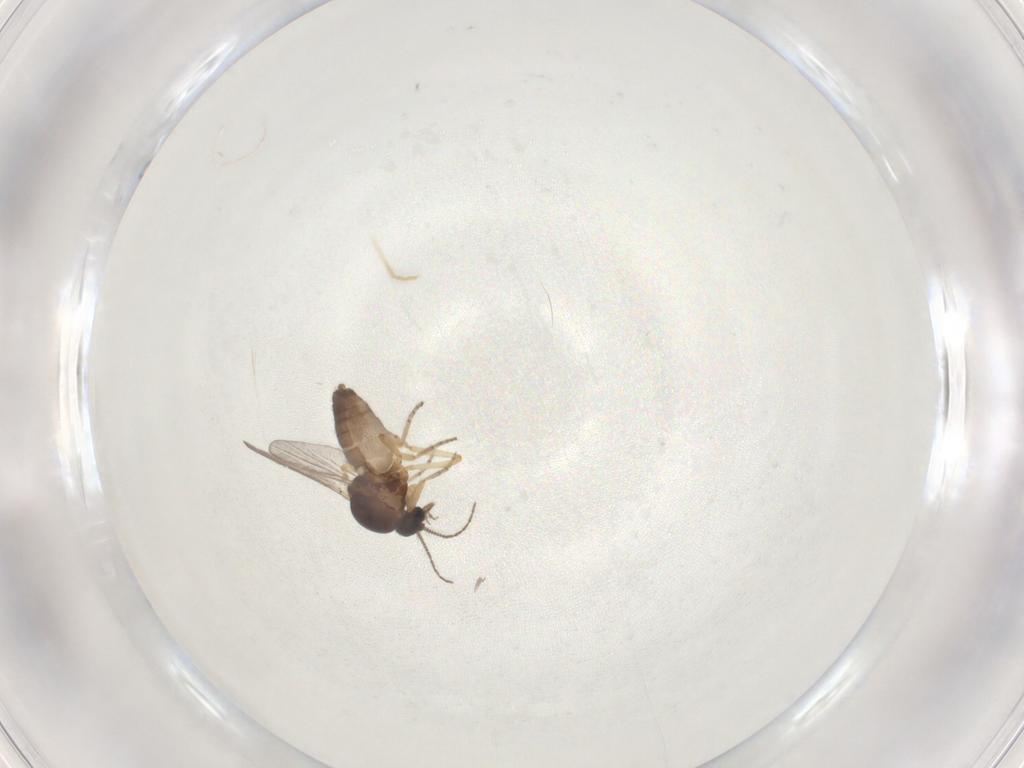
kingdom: Animalia
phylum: Arthropoda
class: Insecta
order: Diptera
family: Ceratopogonidae
